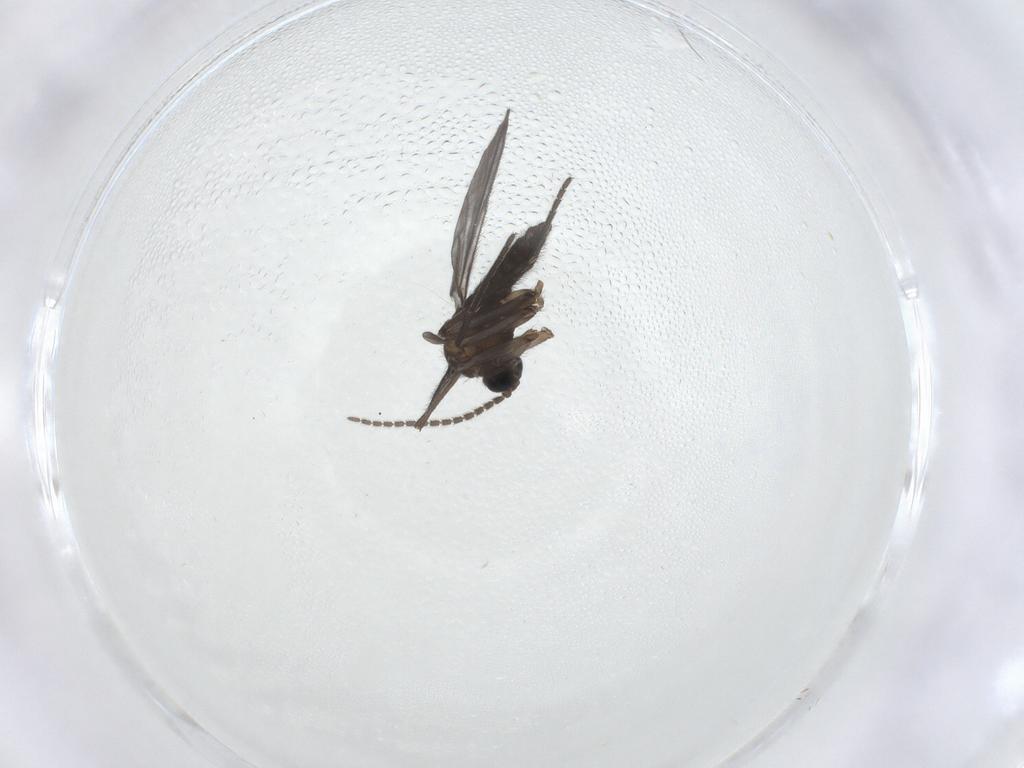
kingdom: Animalia
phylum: Arthropoda
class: Insecta
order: Diptera
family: Sciaridae
